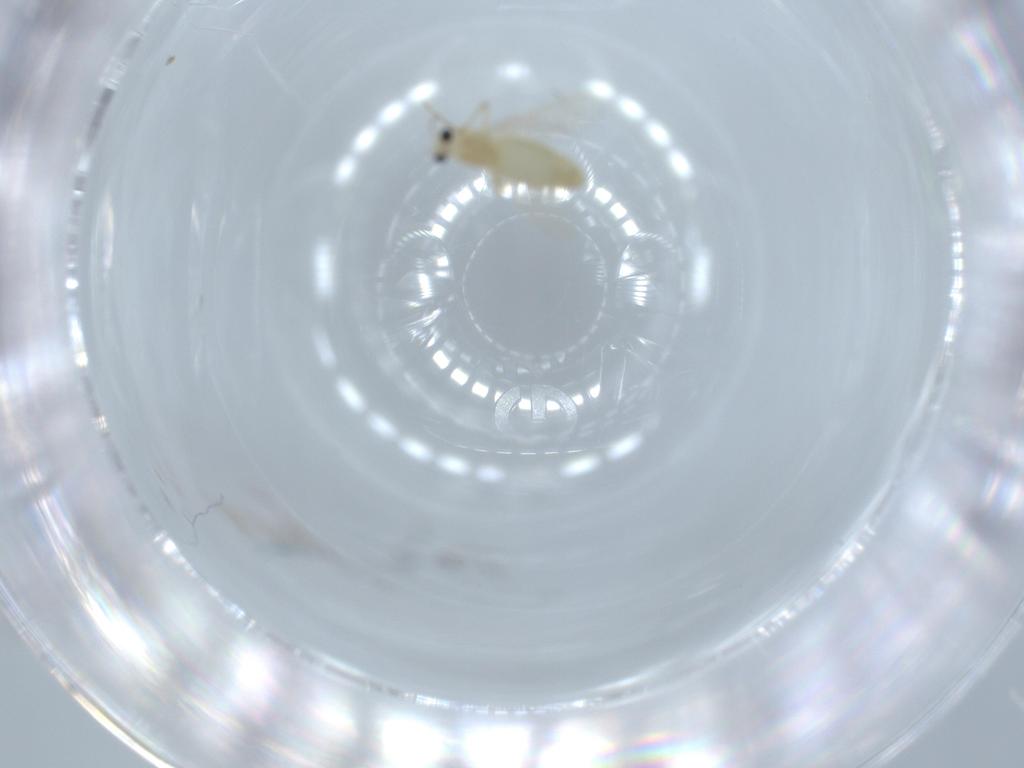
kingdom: Animalia
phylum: Arthropoda
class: Insecta
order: Diptera
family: Chironomidae
